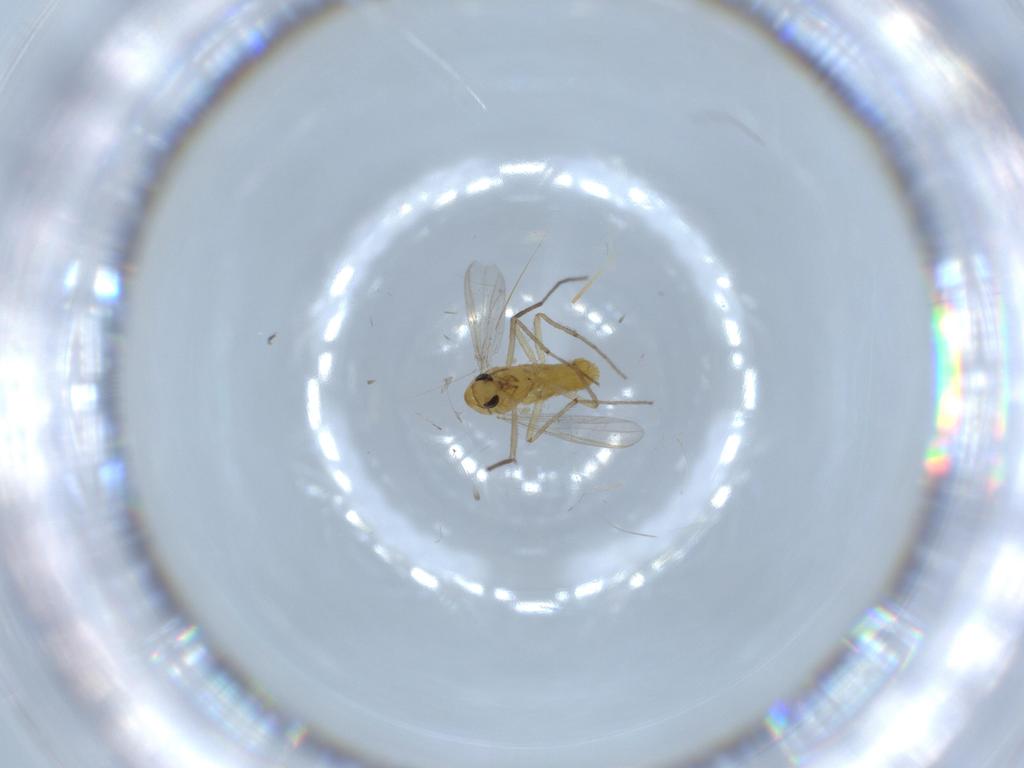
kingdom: Animalia
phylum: Arthropoda
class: Insecta
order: Diptera
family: Chironomidae
